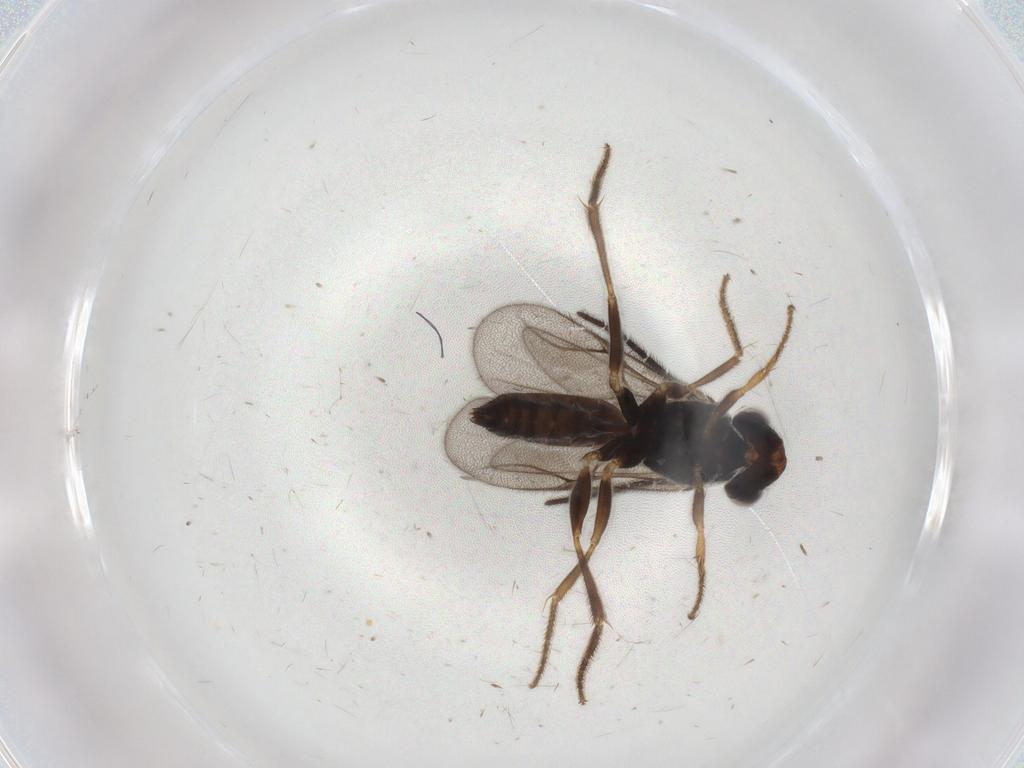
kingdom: Animalia
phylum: Arthropoda
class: Insecta
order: Hymenoptera
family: Dryinidae
